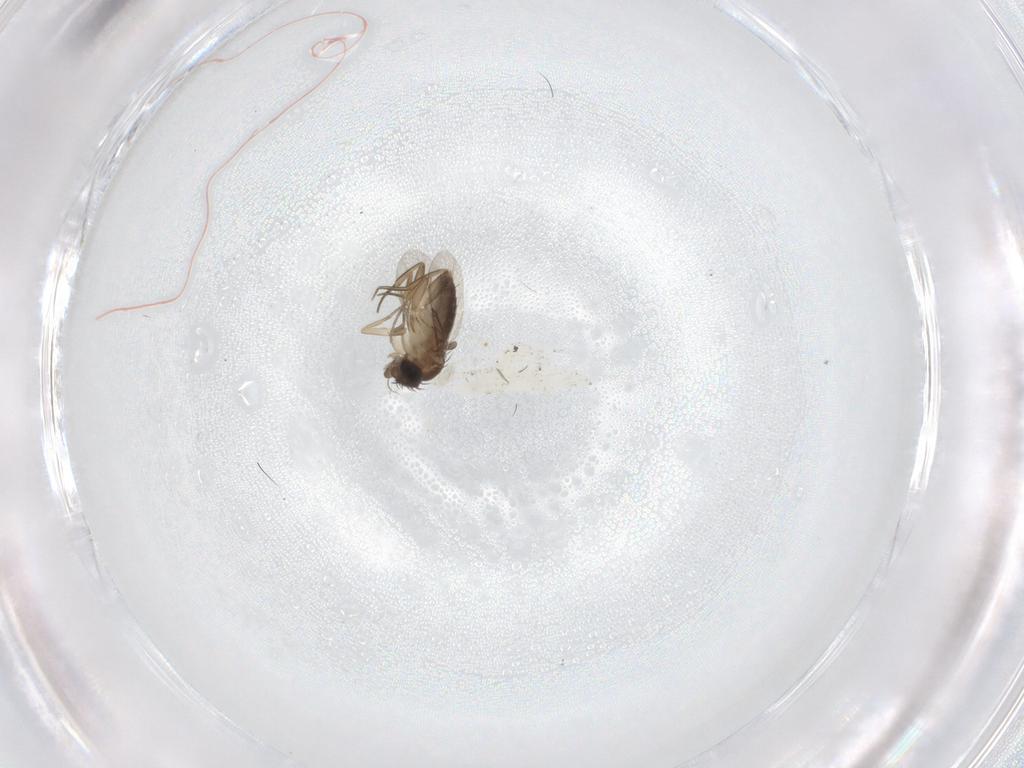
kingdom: Animalia
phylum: Arthropoda
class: Insecta
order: Diptera
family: Phoridae
